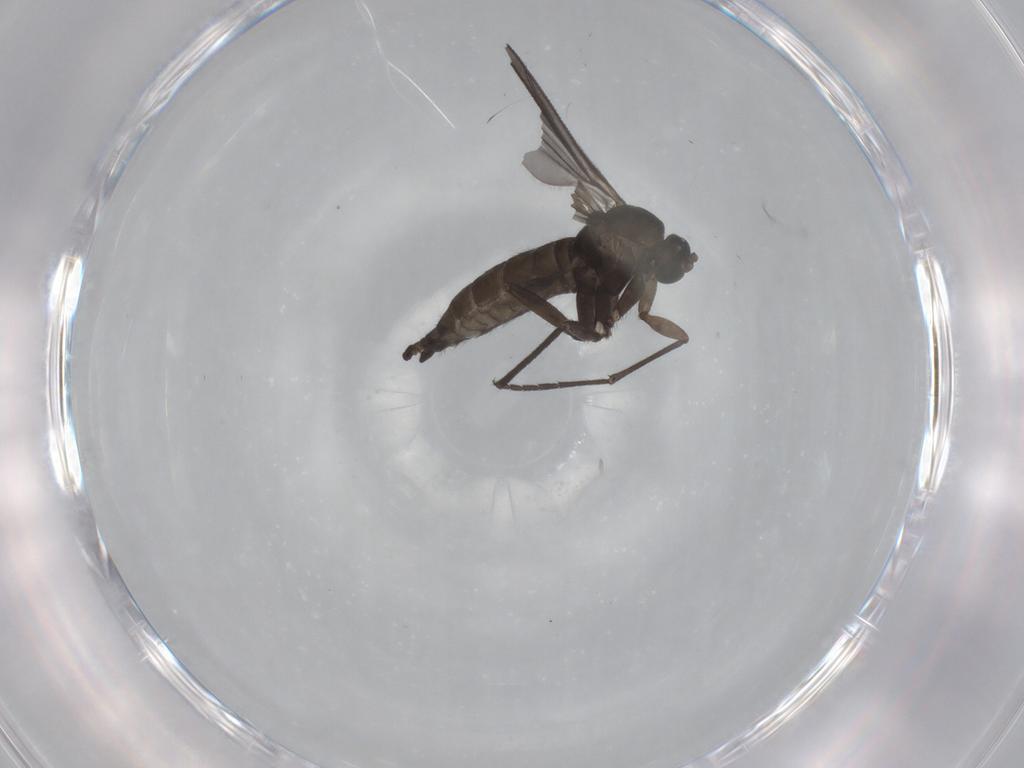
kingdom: Animalia
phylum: Arthropoda
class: Insecta
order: Diptera
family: Sciaridae
